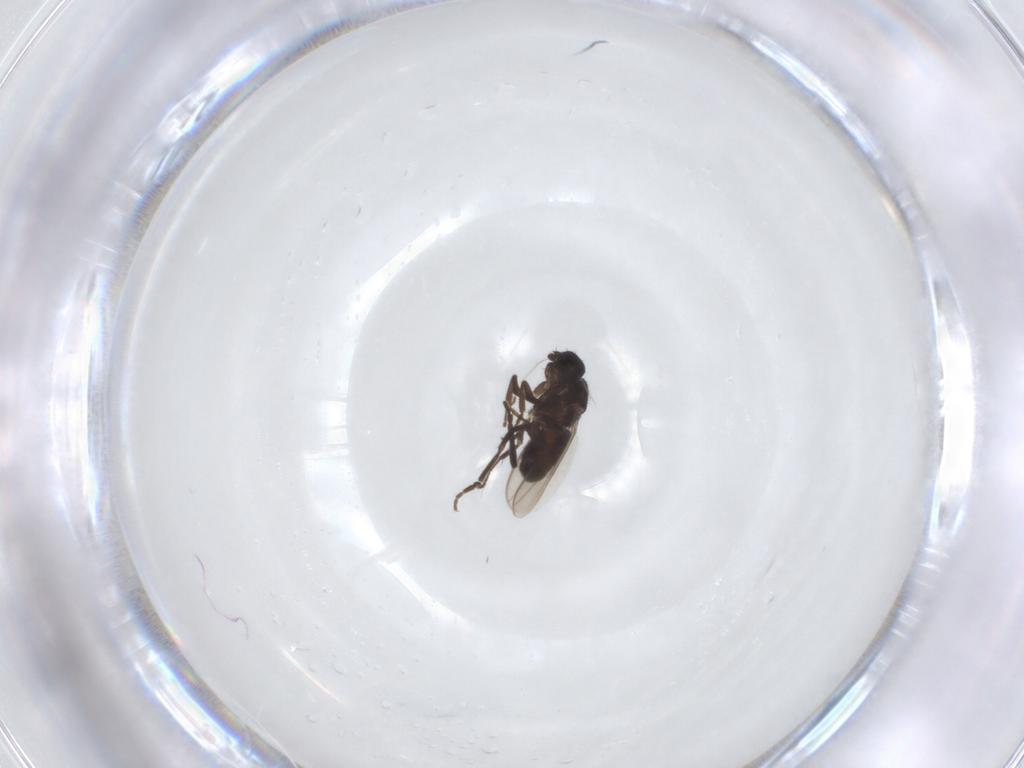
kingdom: Animalia
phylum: Arthropoda
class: Insecta
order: Diptera
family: Sphaeroceridae
